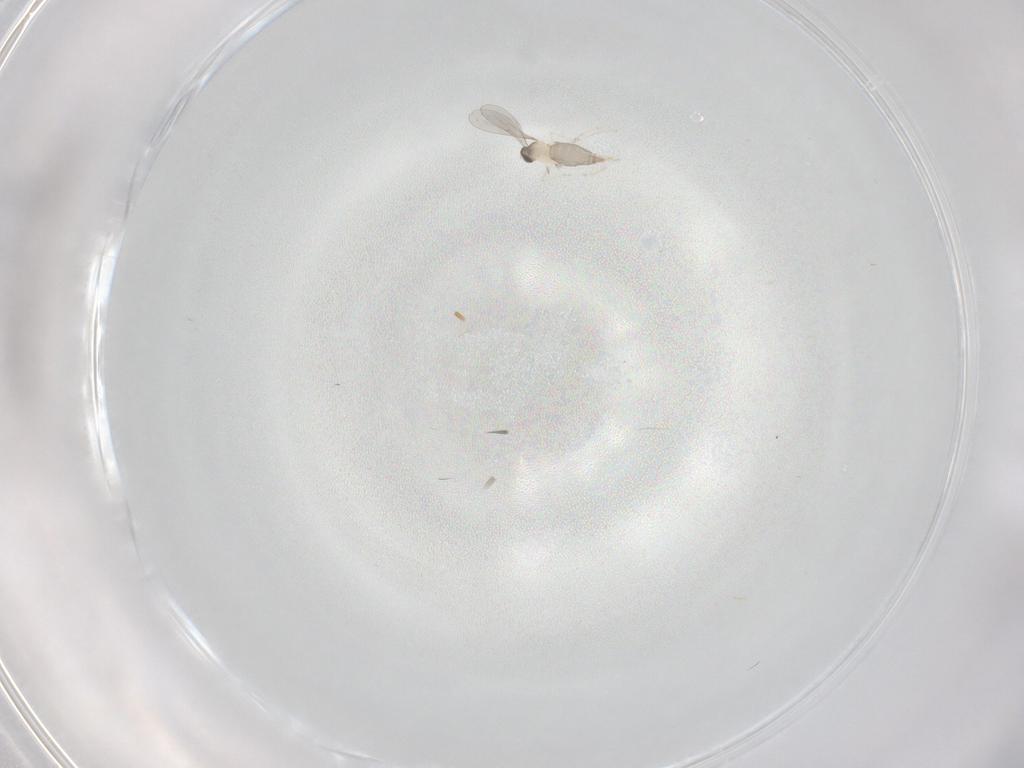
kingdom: Animalia
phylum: Arthropoda
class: Insecta
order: Diptera
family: Cecidomyiidae
